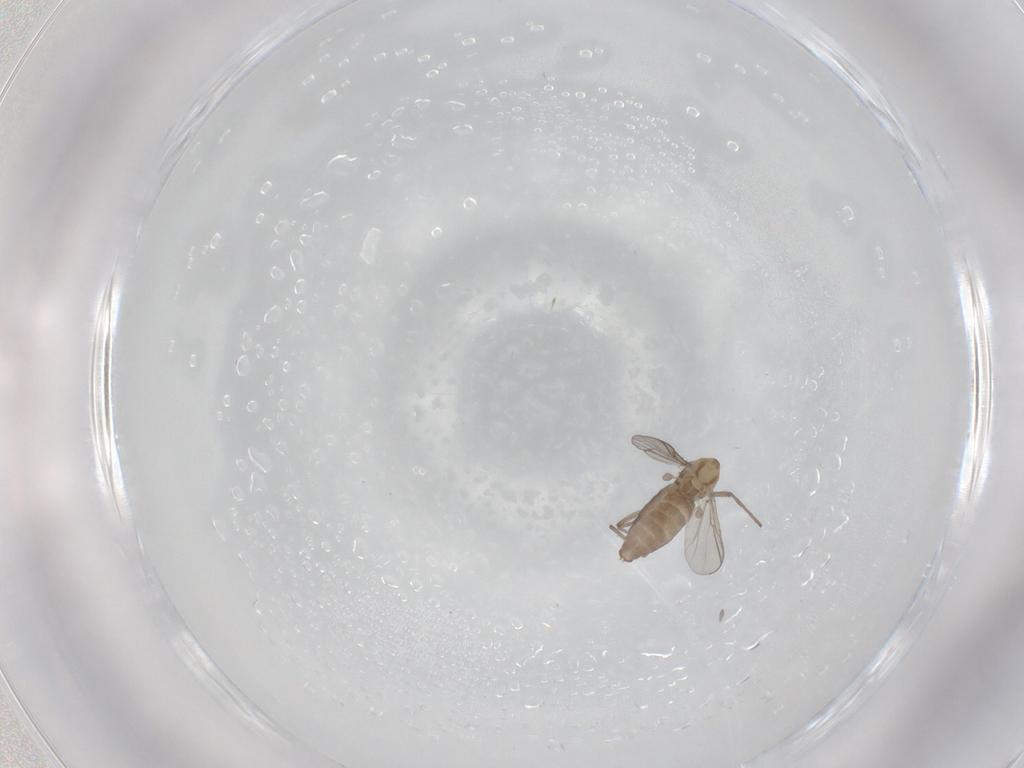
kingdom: Animalia
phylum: Arthropoda
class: Insecta
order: Diptera
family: Chironomidae
